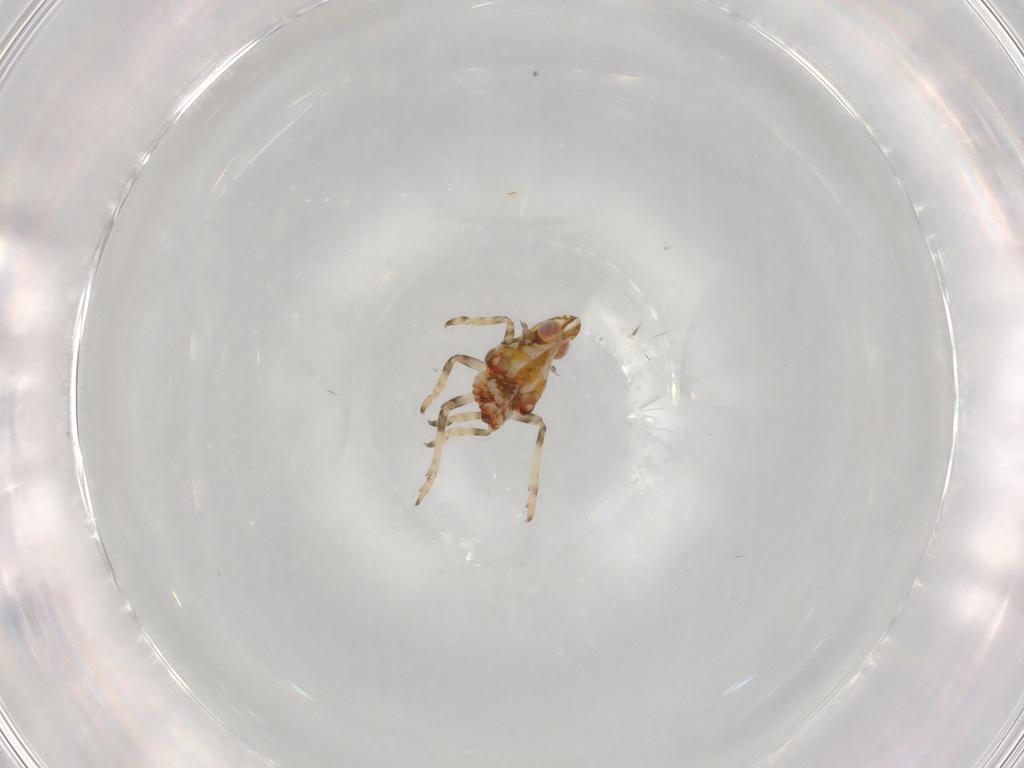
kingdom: Animalia
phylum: Arthropoda
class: Insecta
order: Hemiptera
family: Tropiduchidae
